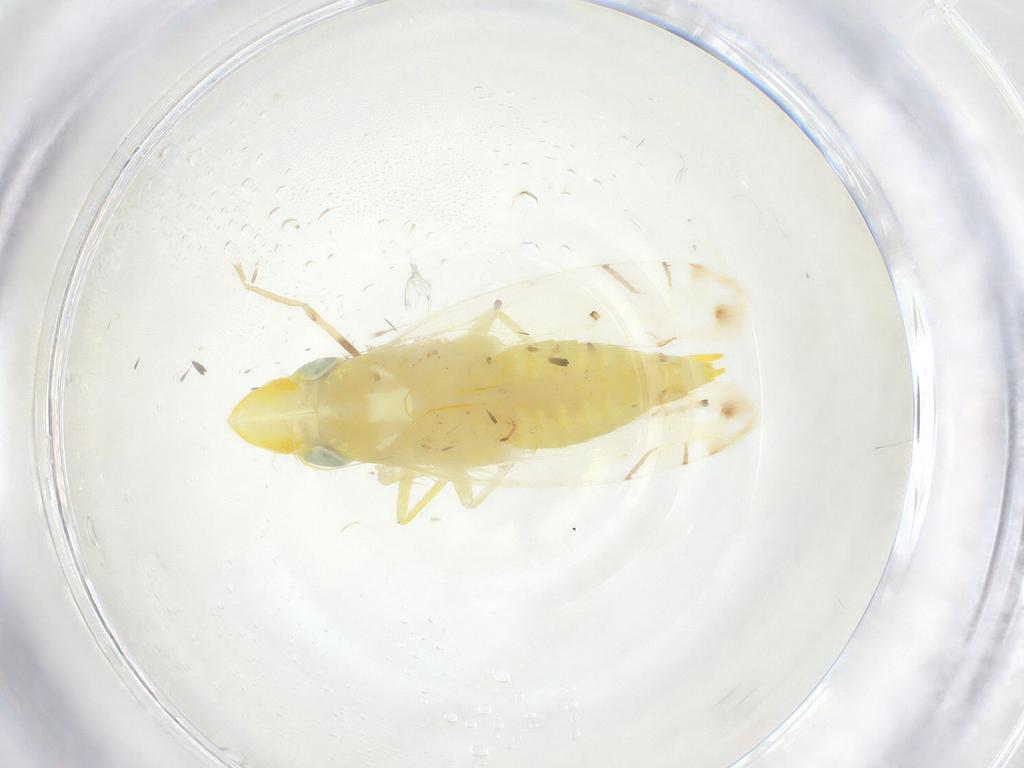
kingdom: Animalia
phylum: Arthropoda
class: Insecta
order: Hemiptera
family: Cicadellidae
